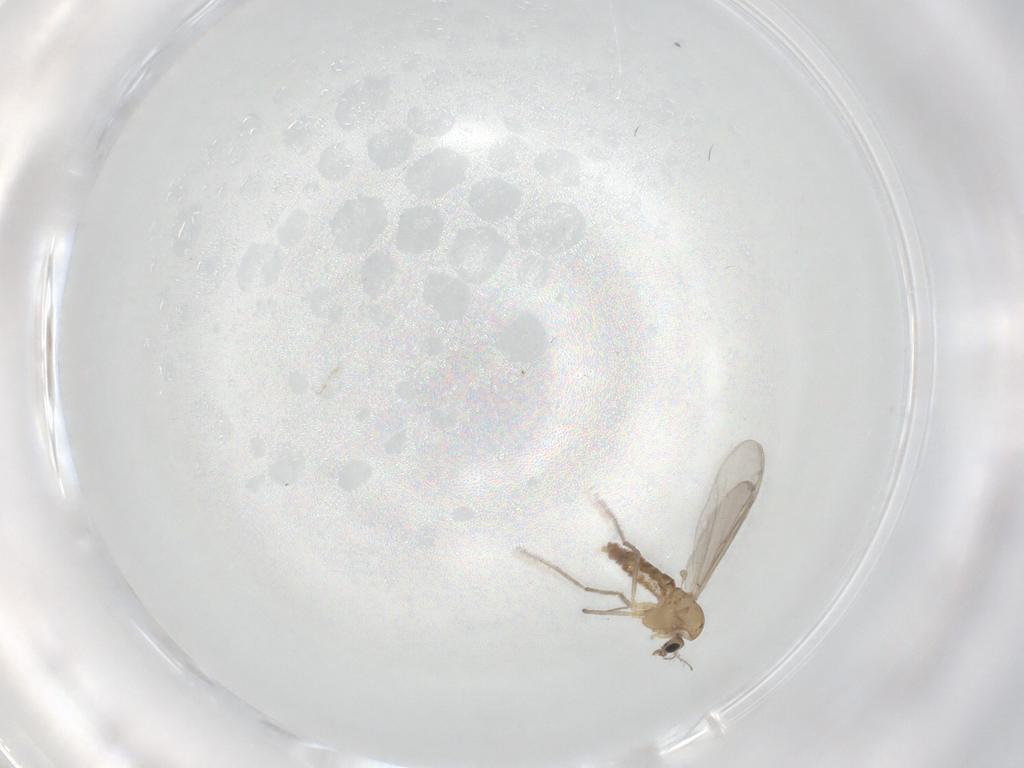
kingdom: Animalia
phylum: Arthropoda
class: Insecta
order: Diptera
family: Chironomidae
